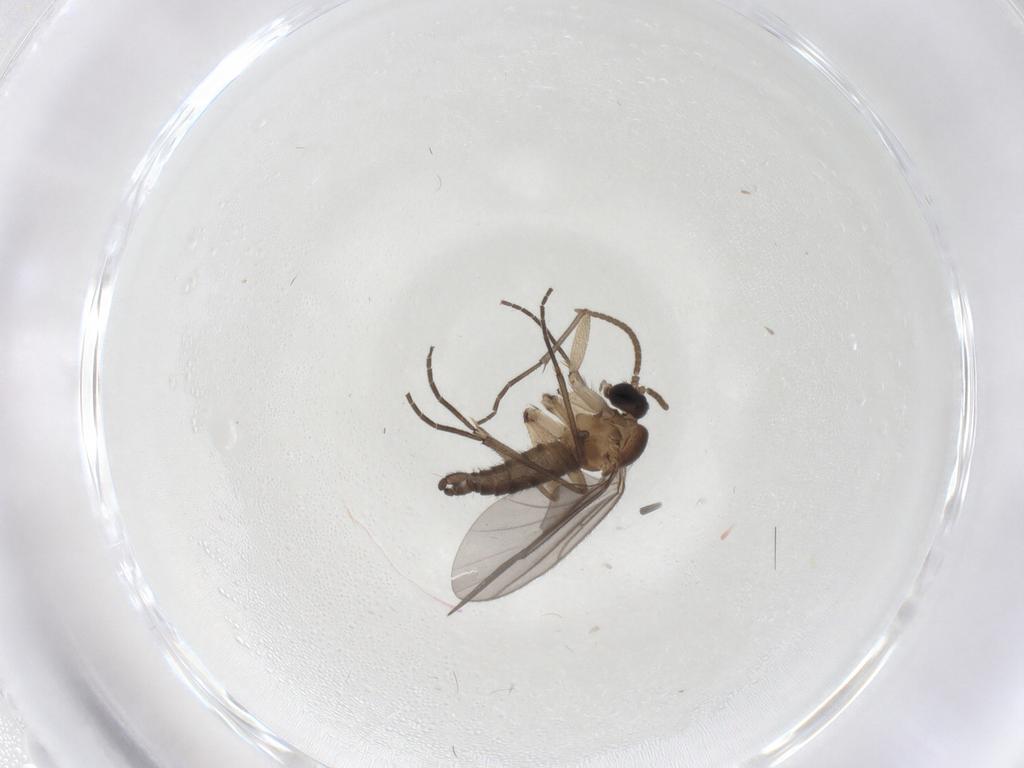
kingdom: Animalia
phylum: Arthropoda
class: Insecta
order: Diptera
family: Sciaridae
